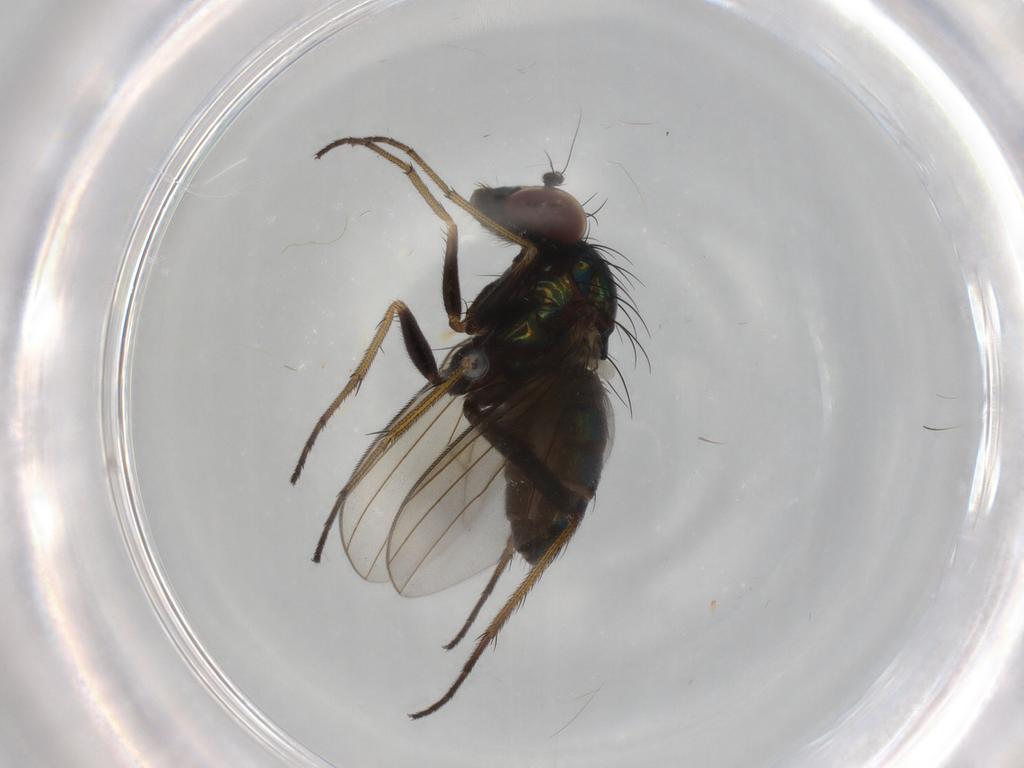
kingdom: Animalia
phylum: Arthropoda
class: Insecta
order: Diptera
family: Dolichopodidae
